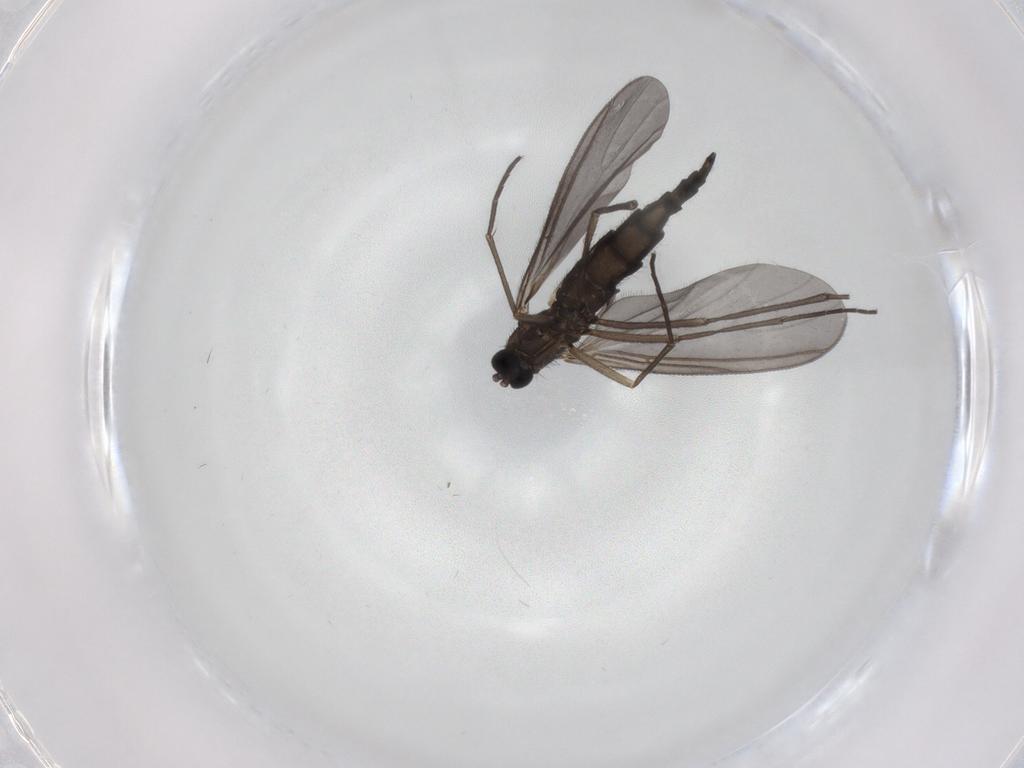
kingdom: Animalia
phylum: Arthropoda
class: Insecta
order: Diptera
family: Sciaridae
